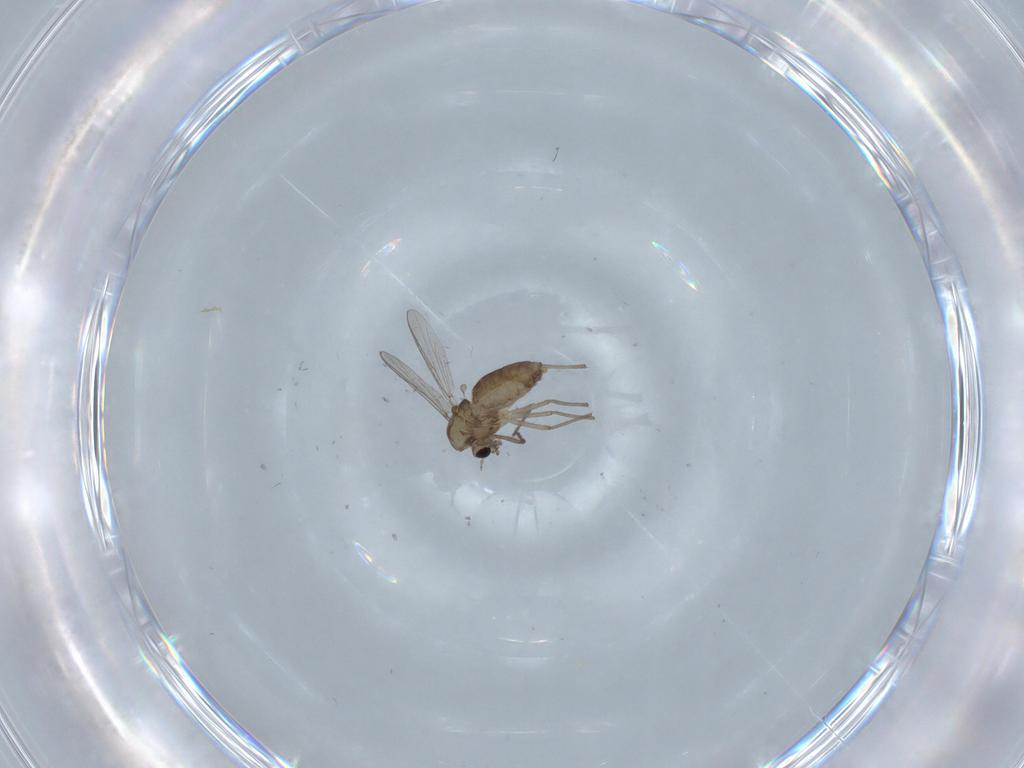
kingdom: Animalia
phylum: Arthropoda
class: Insecta
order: Diptera
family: Chironomidae
